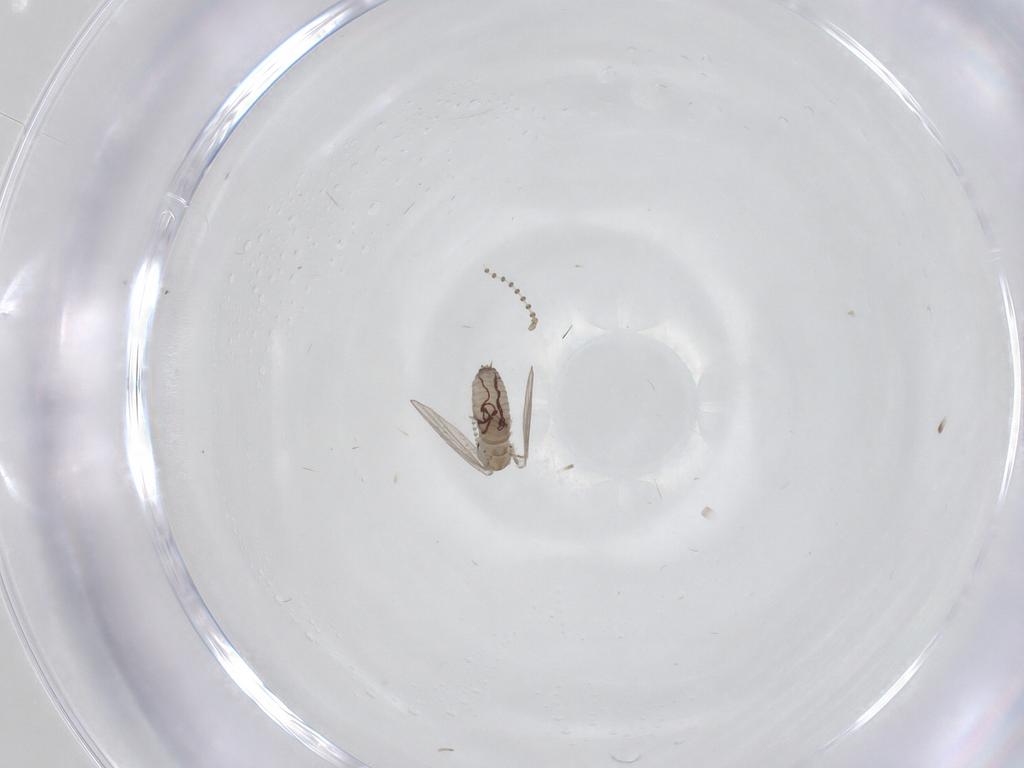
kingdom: Animalia
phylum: Arthropoda
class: Insecta
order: Diptera
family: Psychodidae
